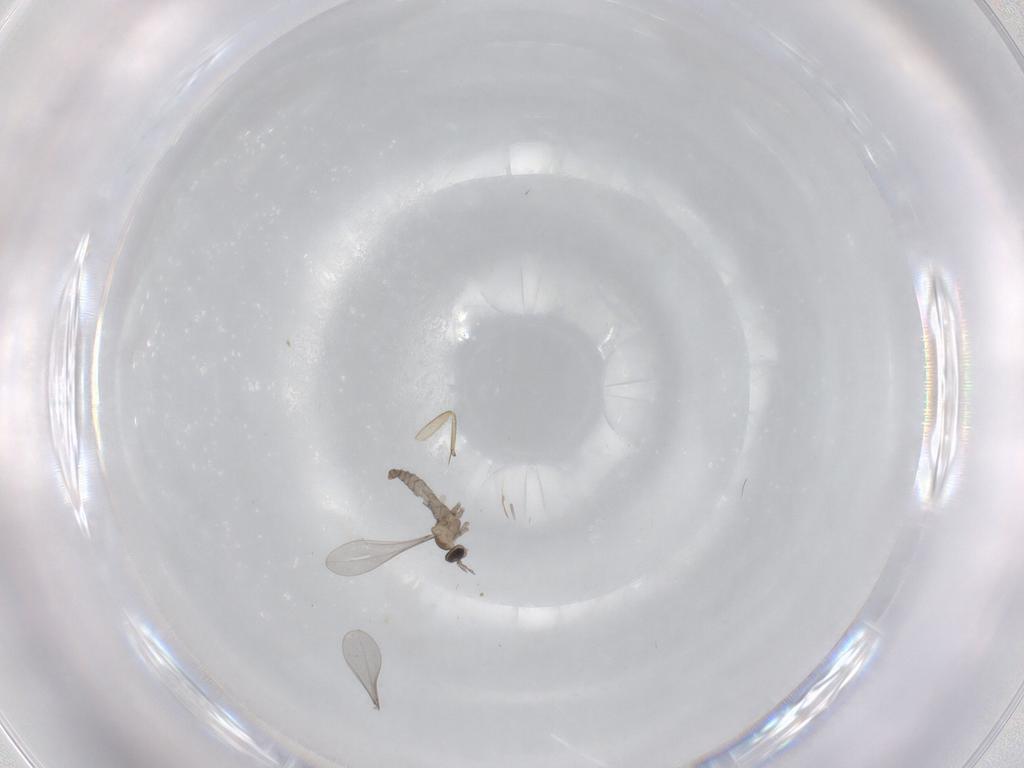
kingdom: Animalia
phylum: Arthropoda
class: Insecta
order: Diptera
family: Cecidomyiidae
